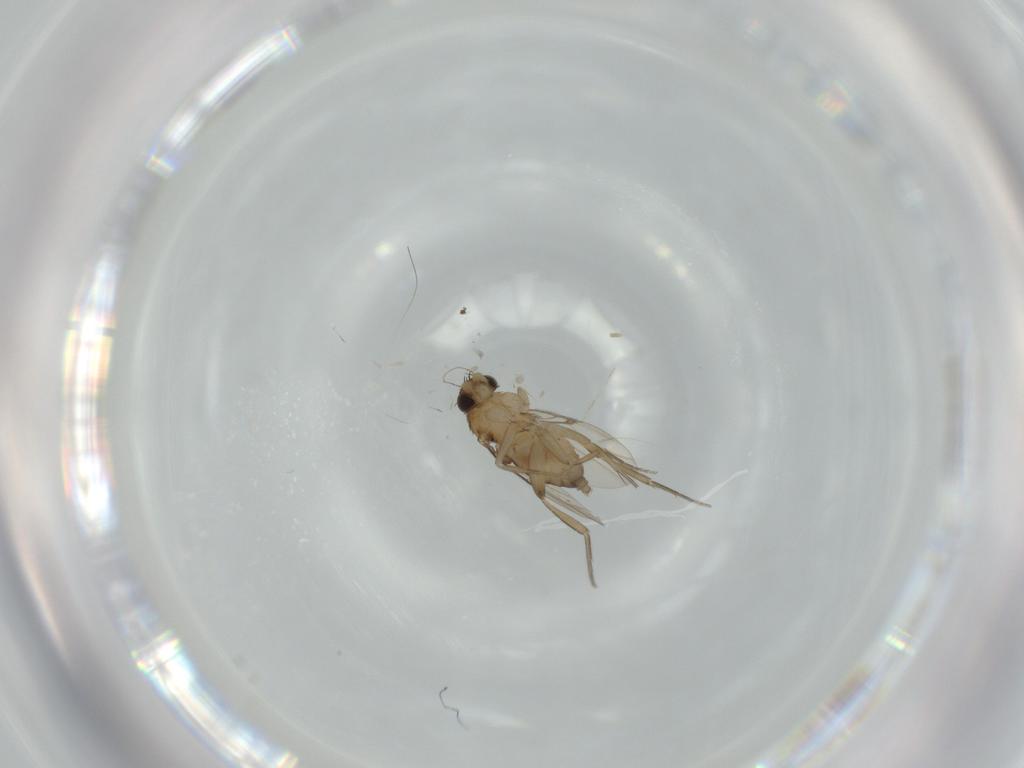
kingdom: Animalia
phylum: Arthropoda
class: Insecta
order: Diptera
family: Phoridae
